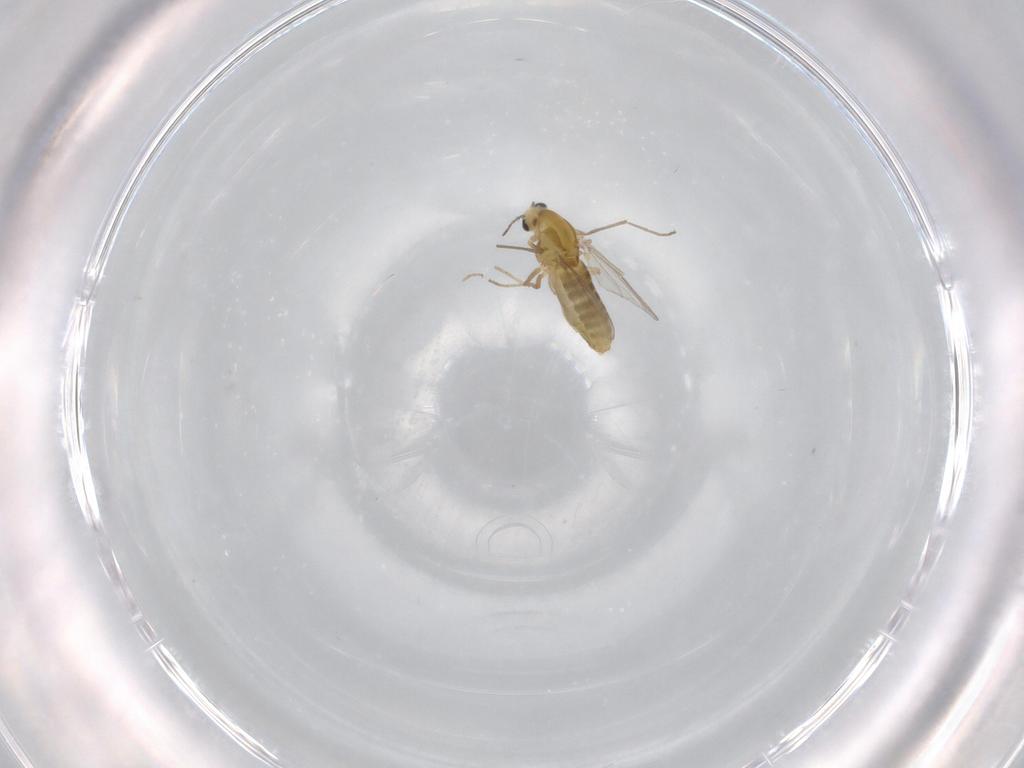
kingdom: Animalia
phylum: Arthropoda
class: Insecta
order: Diptera
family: Chironomidae
